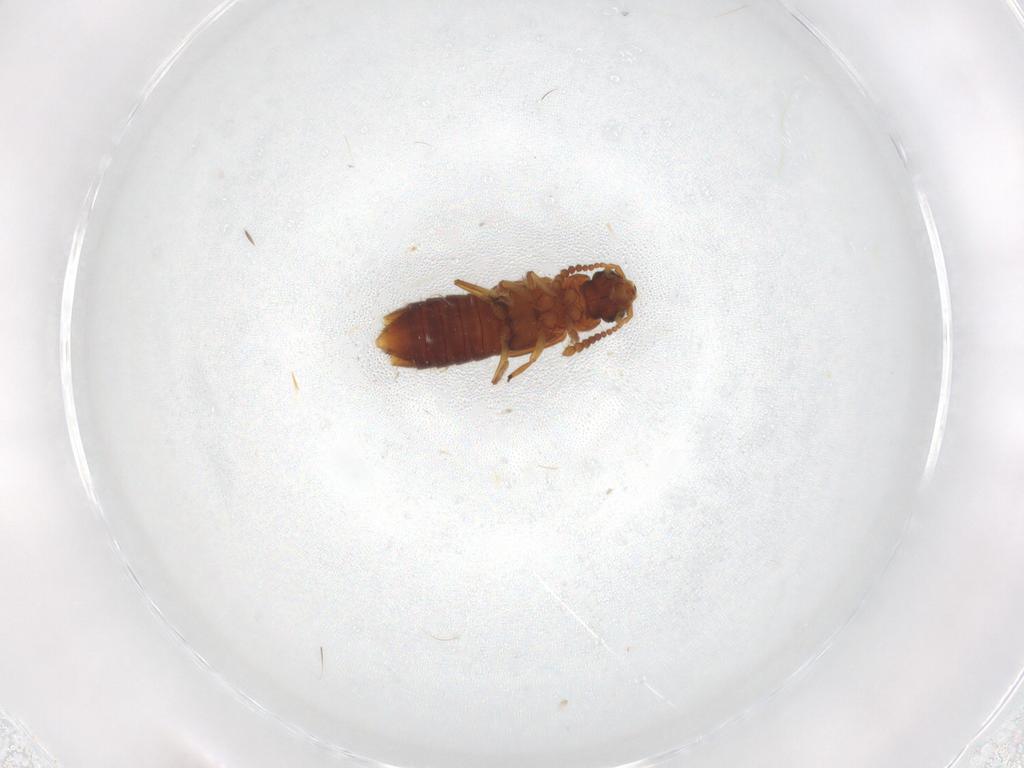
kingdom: Animalia
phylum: Arthropoda
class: Insecta
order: Coleoptera
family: Staphylinidae
